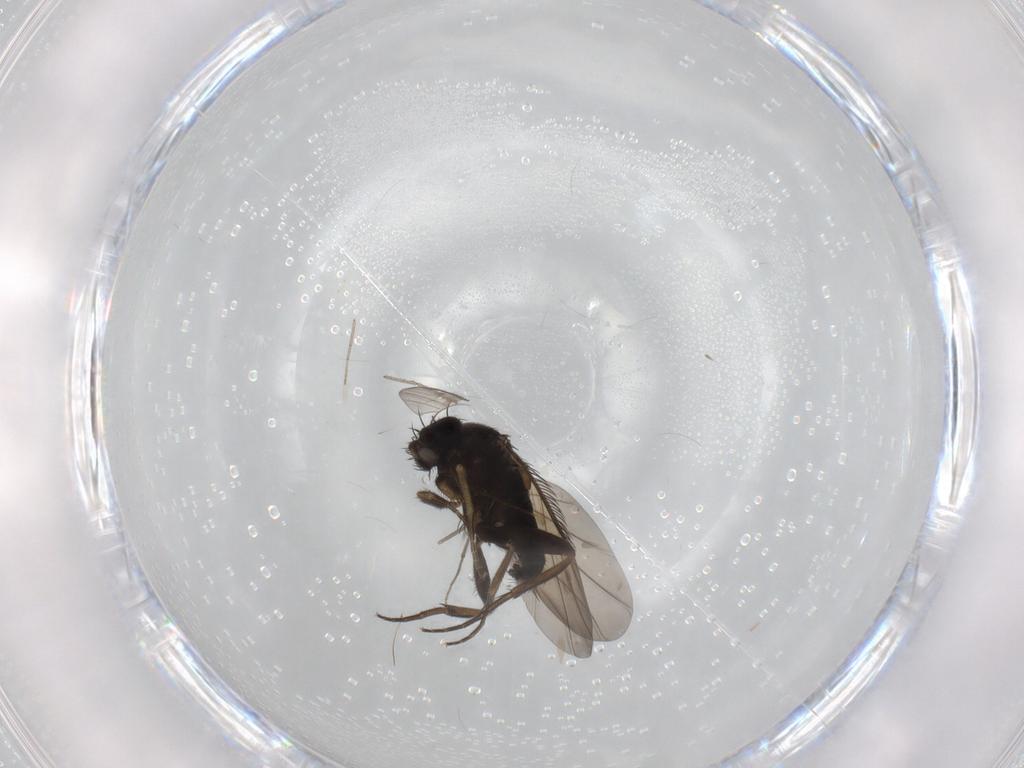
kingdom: Animalia
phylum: Arthropoda
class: Insecta
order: Diptera
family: Phoridae
